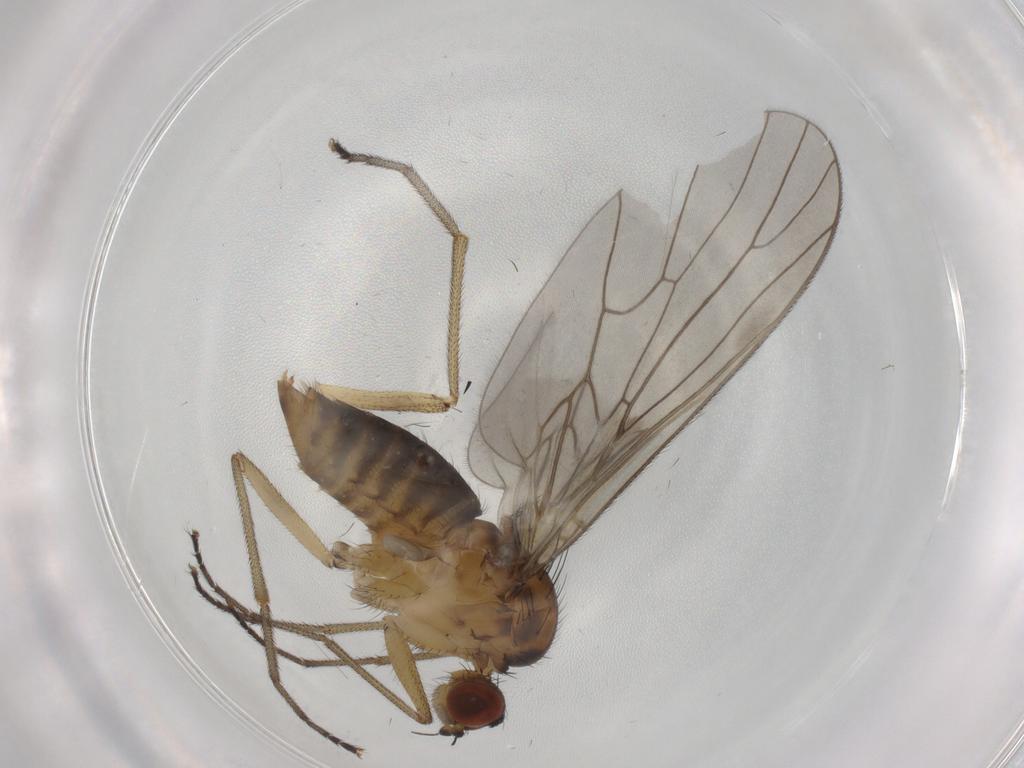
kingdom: Animalia
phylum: Arthropoda
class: Insecta
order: Diptera
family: Brachystomatidae
